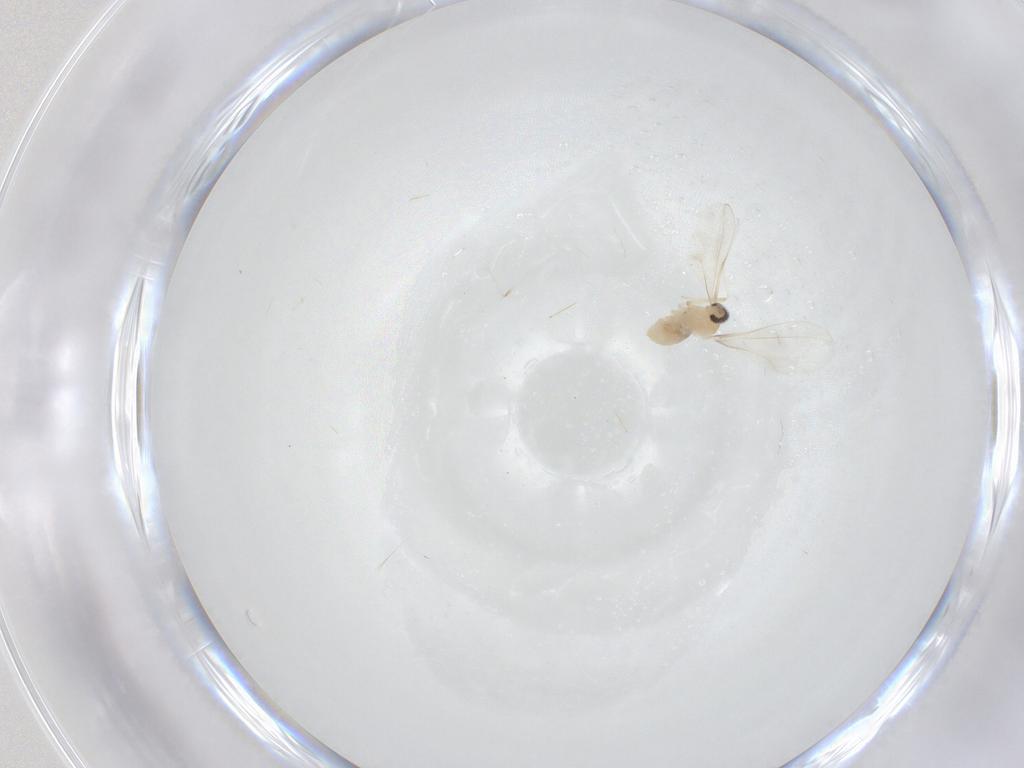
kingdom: Animalia
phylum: Arthropoda
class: Insecta
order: Diptera
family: Cecidomyiidae
